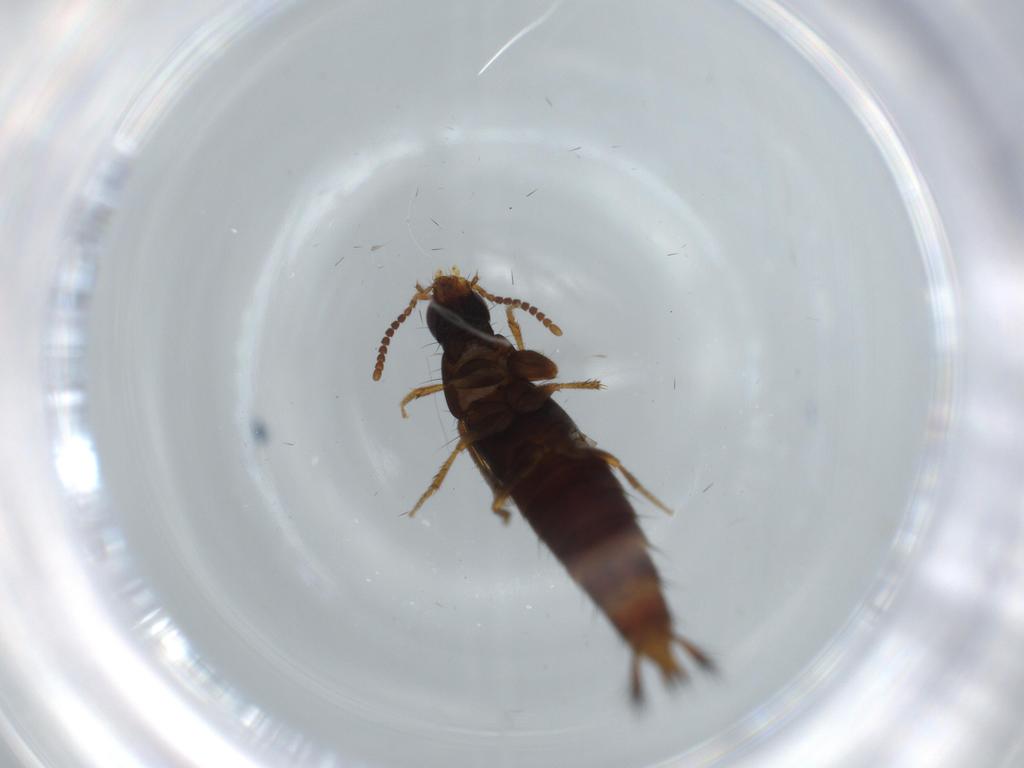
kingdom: Animalia
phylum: Arthropoda
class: Insecta
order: Coleoptera
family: Staphylinidae
